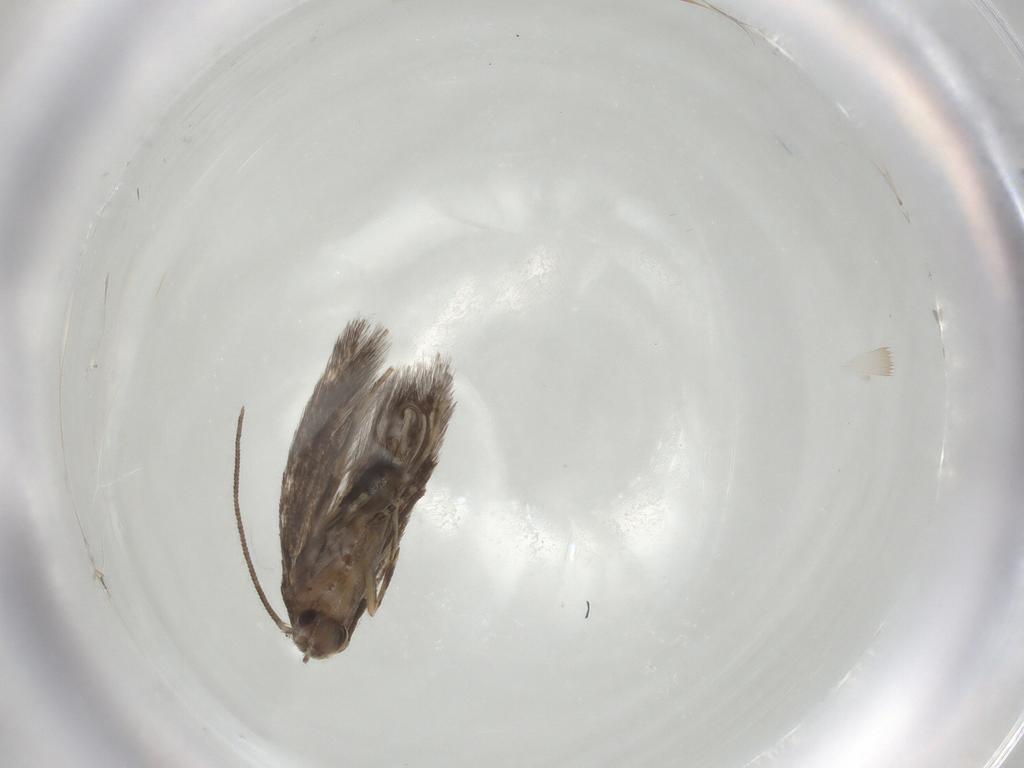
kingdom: Animalia
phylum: Arthropoda
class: Insecta
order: Lepidoptera
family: Elachistidae
